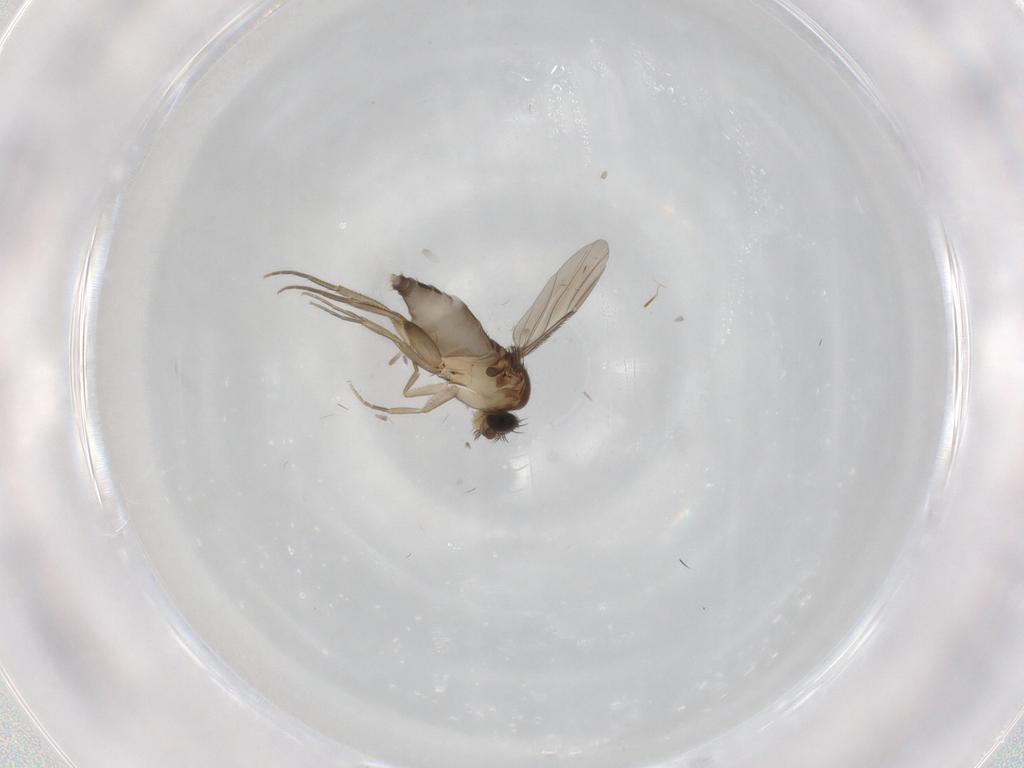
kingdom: Animalia
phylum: Arthropoda
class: Insecta
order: Diptera
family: Phoridae
